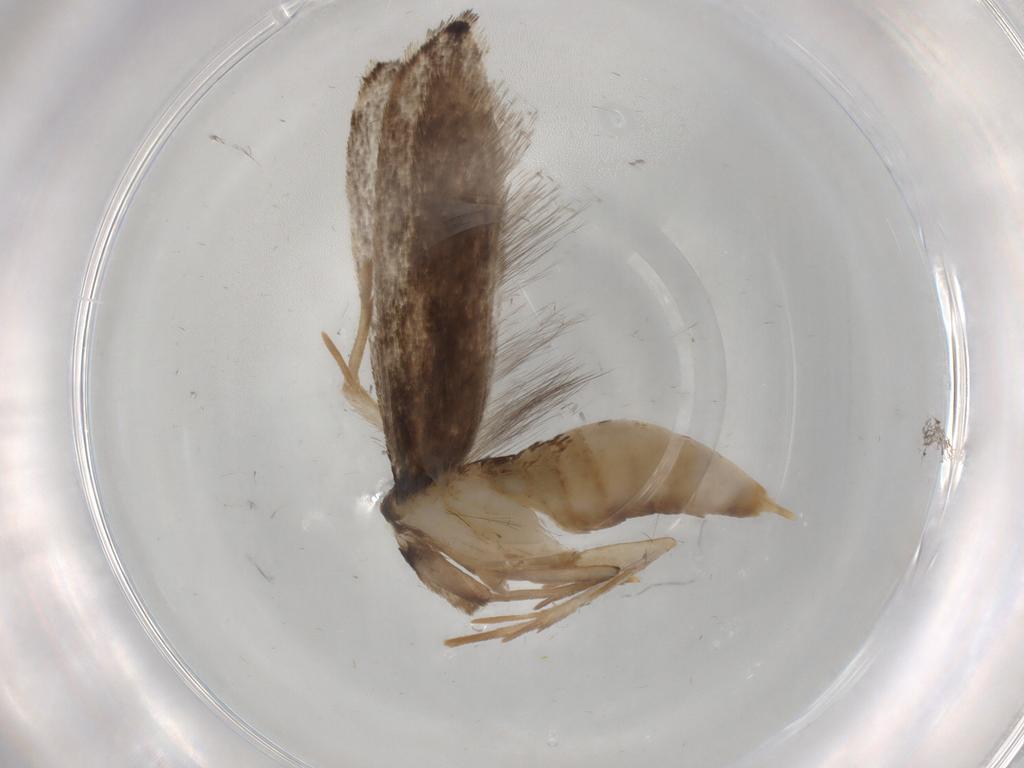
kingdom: Animalia
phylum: Arthropoda
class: Insecta
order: Lepidoptera
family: Tineidae
